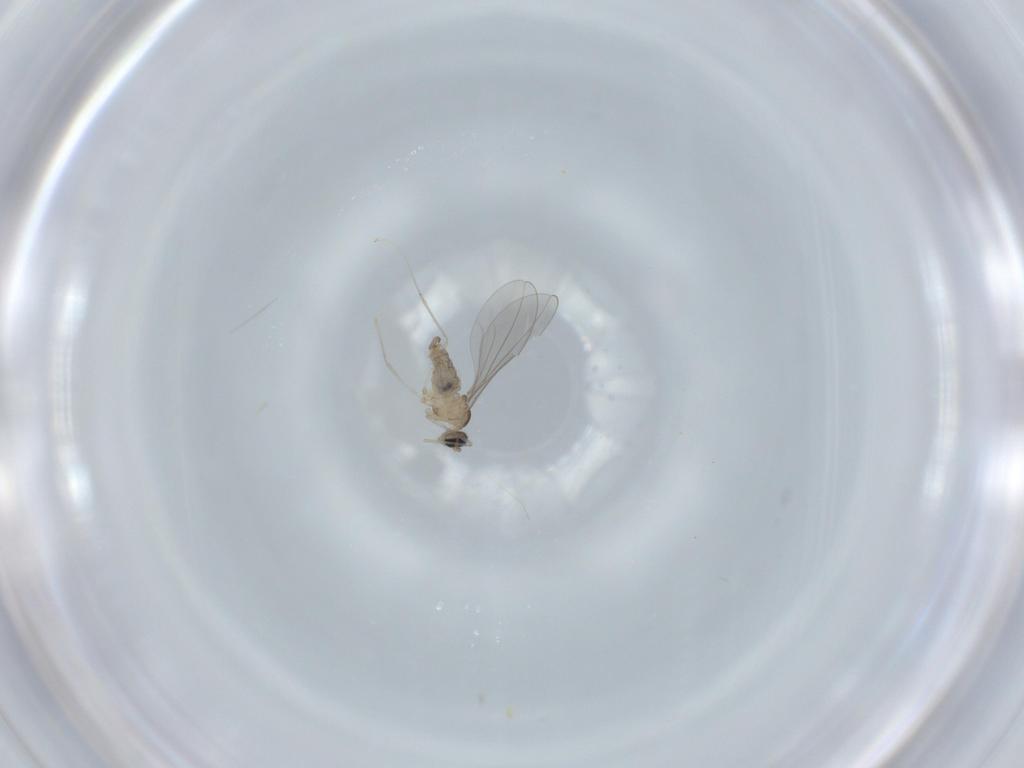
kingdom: Animalia
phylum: Arthropoda
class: Insecta
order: Diptera
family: Cecidomyiidae
